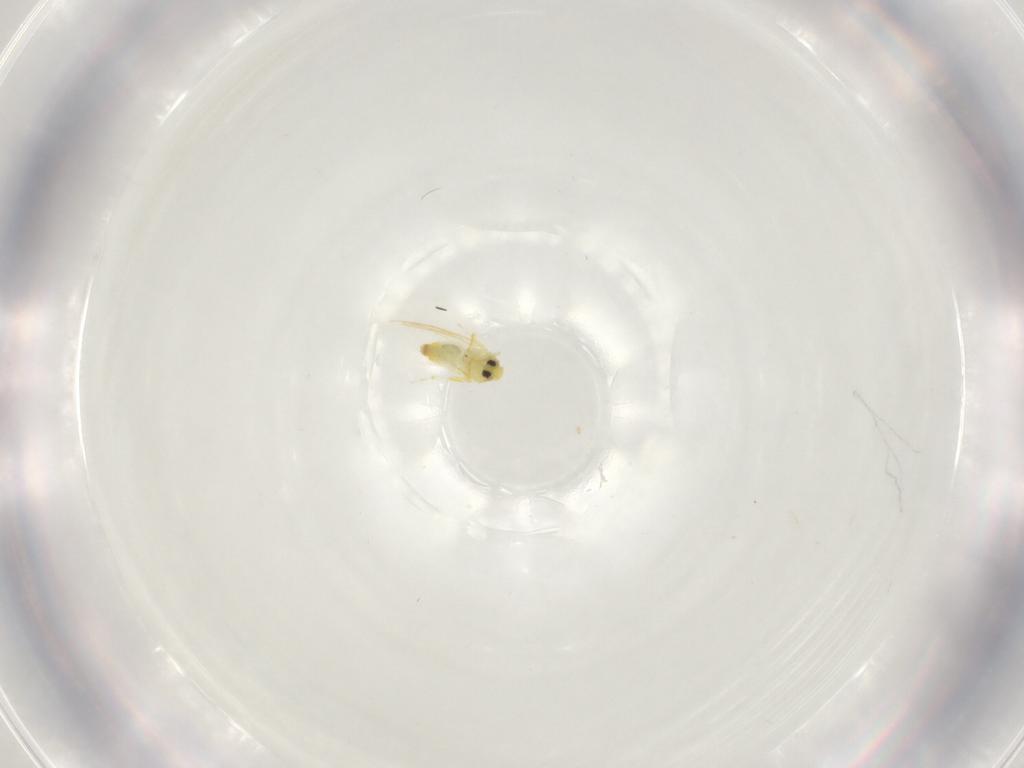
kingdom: Animalia
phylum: Arthropoda
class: Insecta
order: Hemiptera
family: Aleyrodidae
